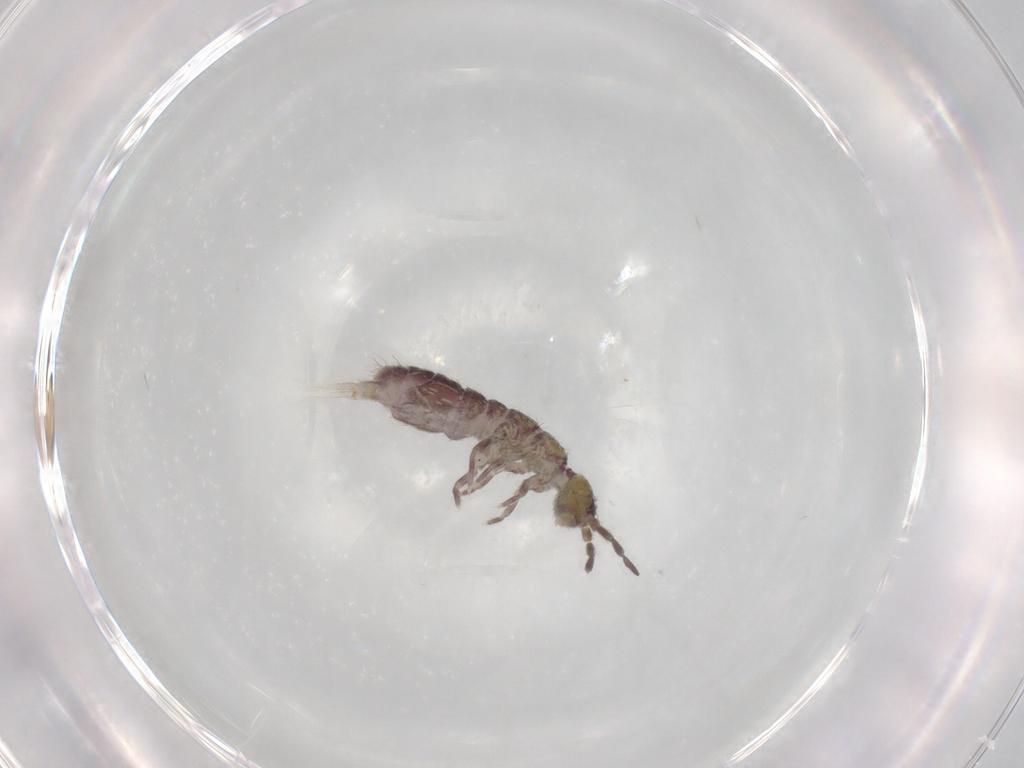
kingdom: Animalia
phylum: Arthropoda
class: Collembola
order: Entomobryomorpha
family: Isotomidae
